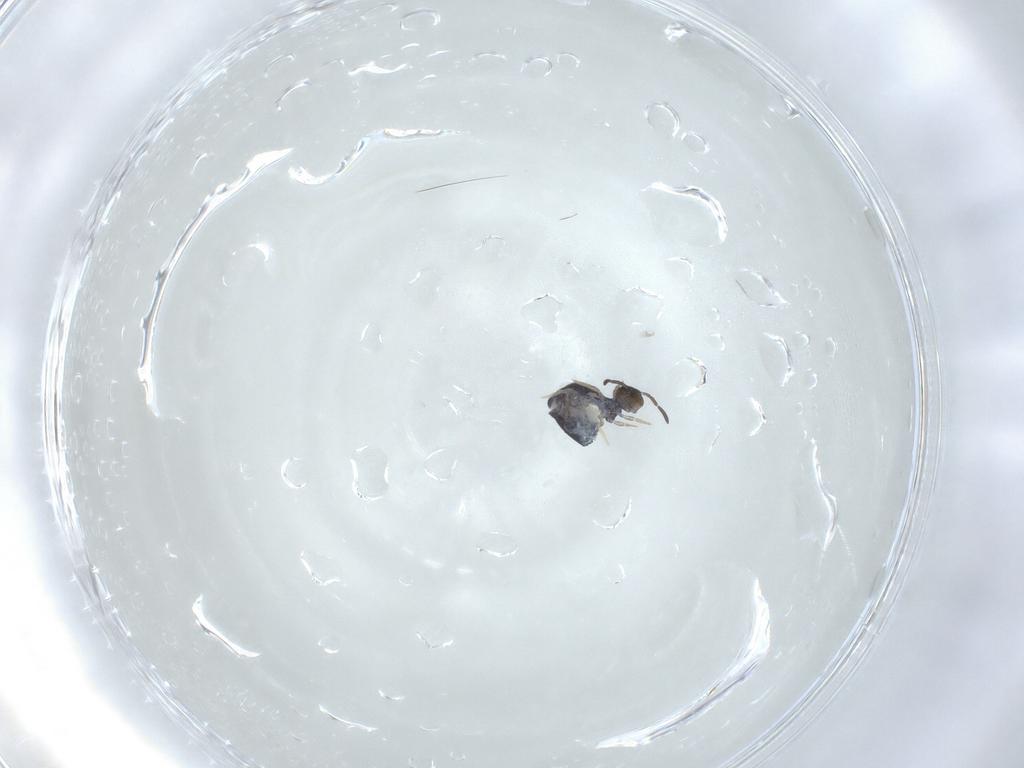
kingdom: Animalia
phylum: Arthropoda
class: Collembola
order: Symphypleona
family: Katiannidae
